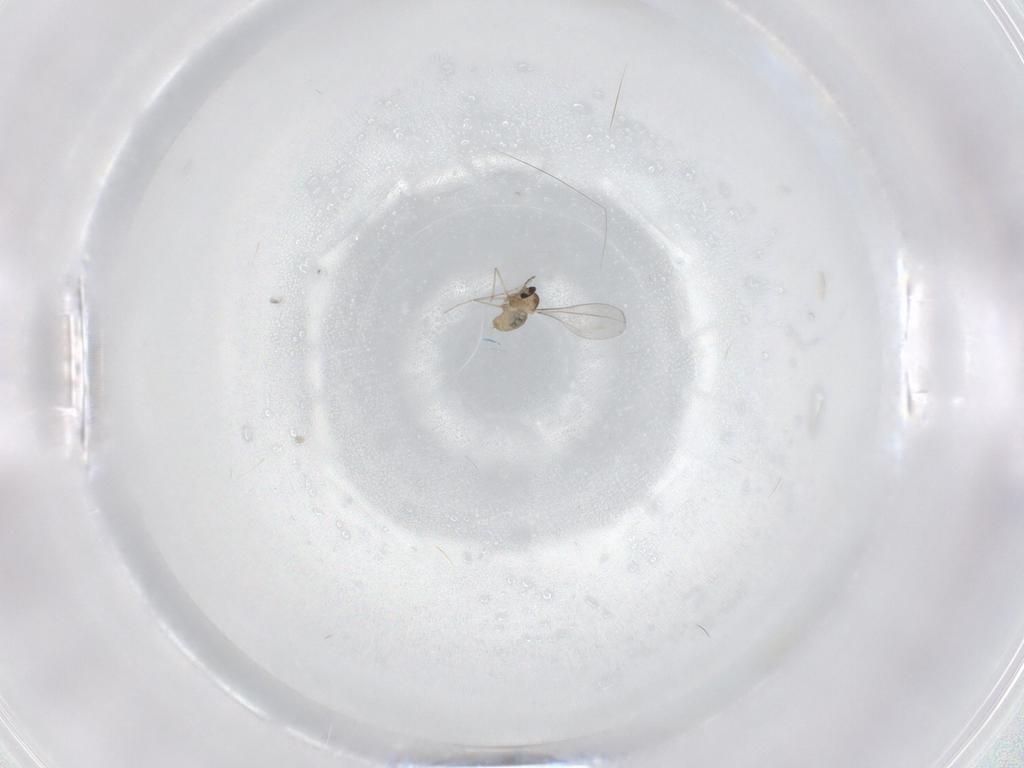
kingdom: Animalia
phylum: Arthropoda
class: Insecta
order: Diptera
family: Cecidomyiidae
